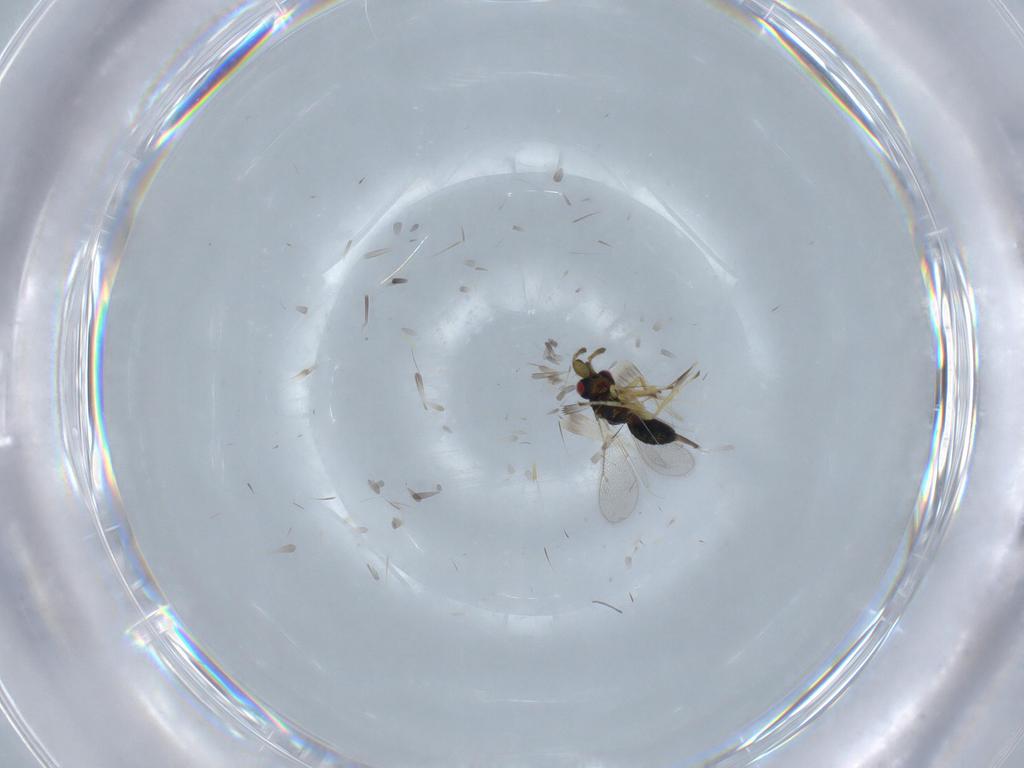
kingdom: Animalia
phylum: Arthropoda
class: Insecta
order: Hymenoptera
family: Eulophidae
